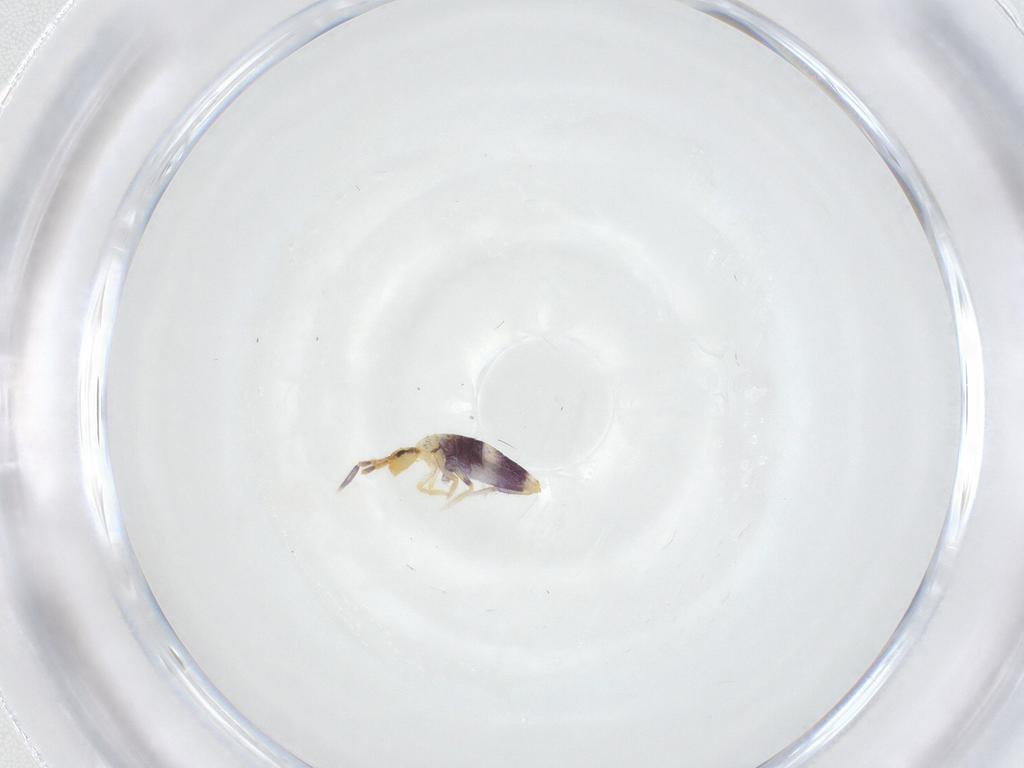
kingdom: Animalia
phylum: Arthropoda
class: Collembola
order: Entomobryomorpha
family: Entomobryidae
